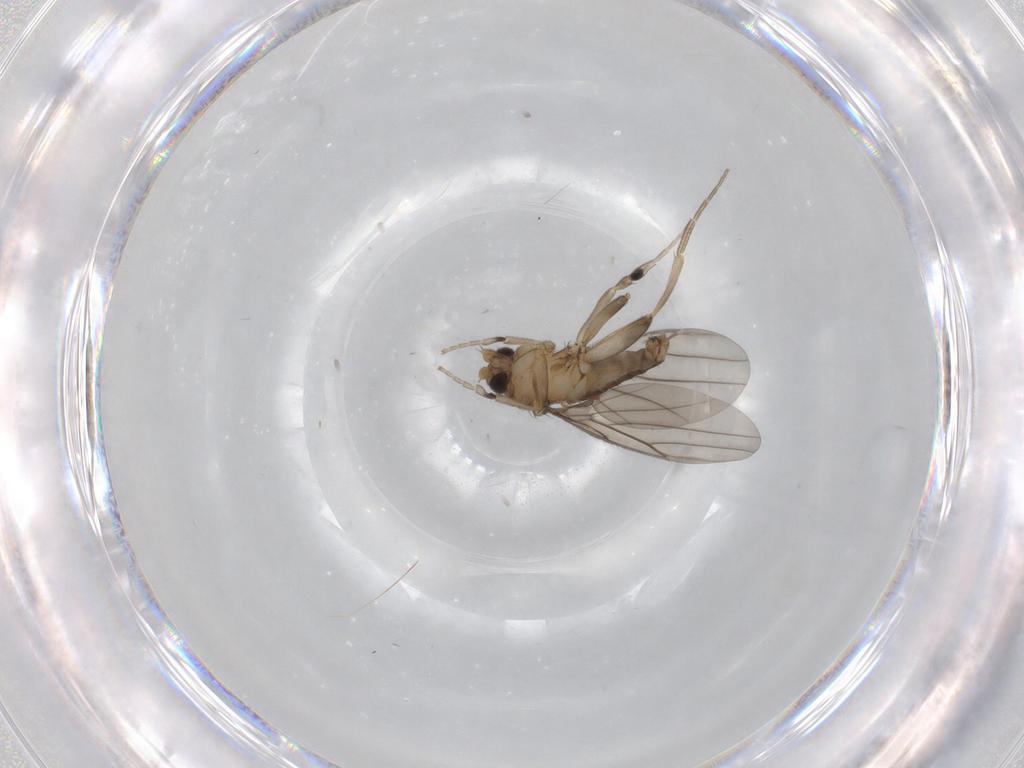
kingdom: Animalia
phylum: Arthropoda
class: Insecta
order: Diptera
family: Phoridae
